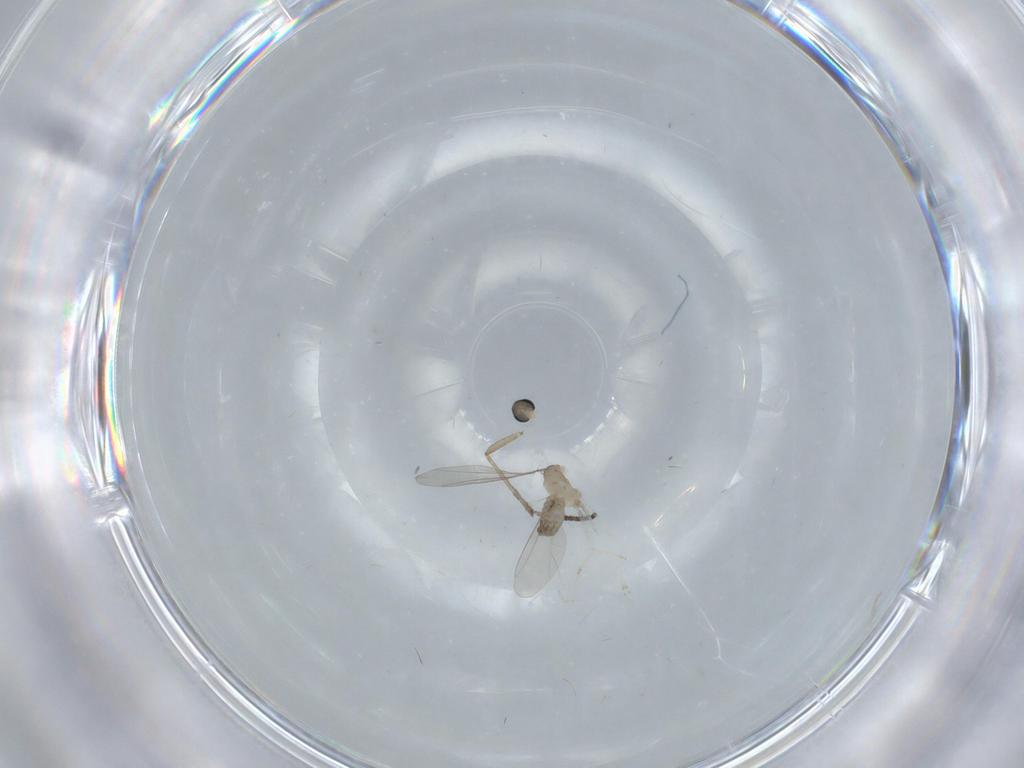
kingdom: Animalia
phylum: Arthropoda
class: Insecta
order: Diptera
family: Cecidomyiidae
